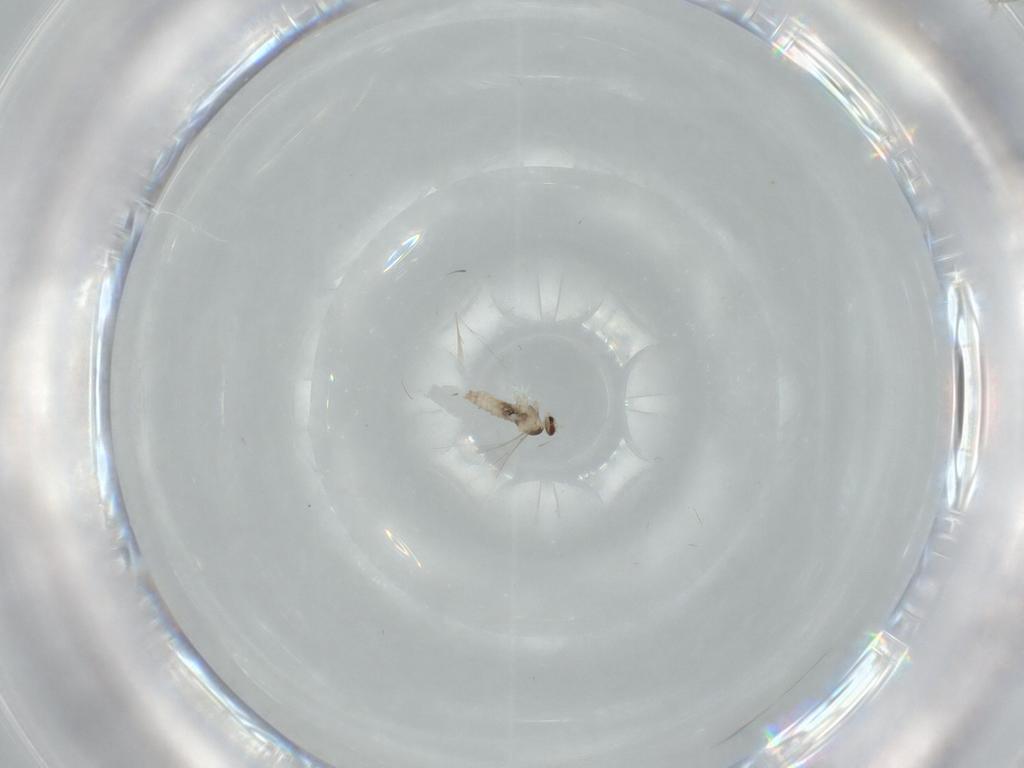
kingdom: Animalia
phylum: Arthropoda
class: Insecta
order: Diptera
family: Cecidomyiidae
